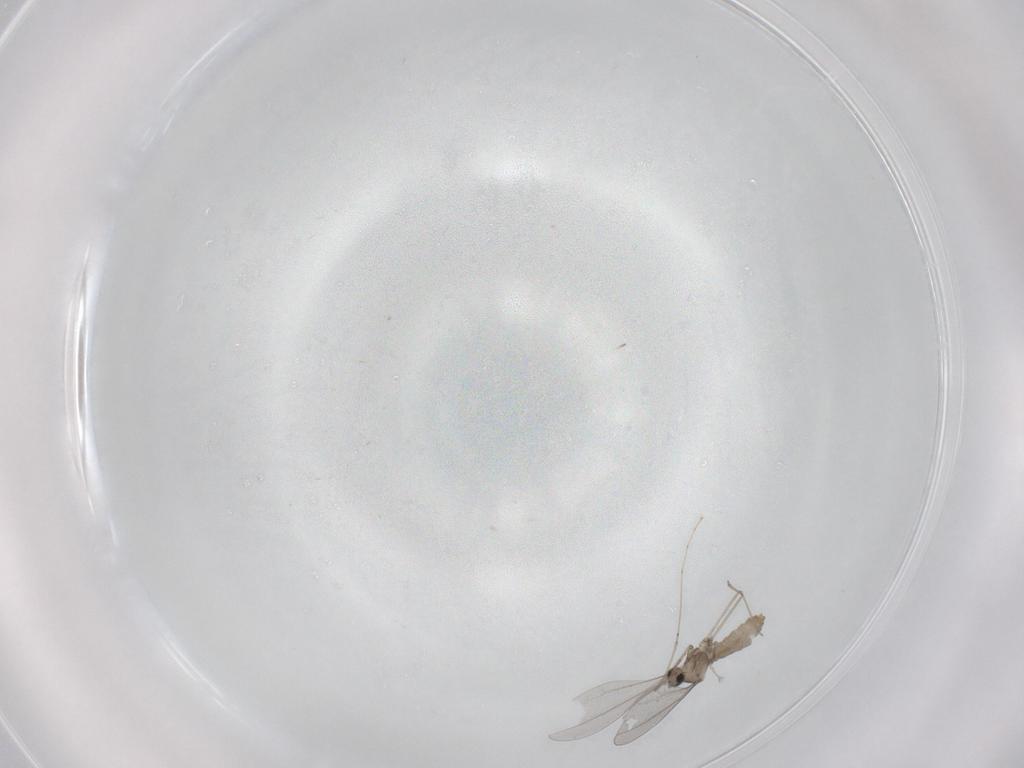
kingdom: Animalia
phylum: Arthropoda
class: Insecta
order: Diptera
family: Cecidomyiidae
